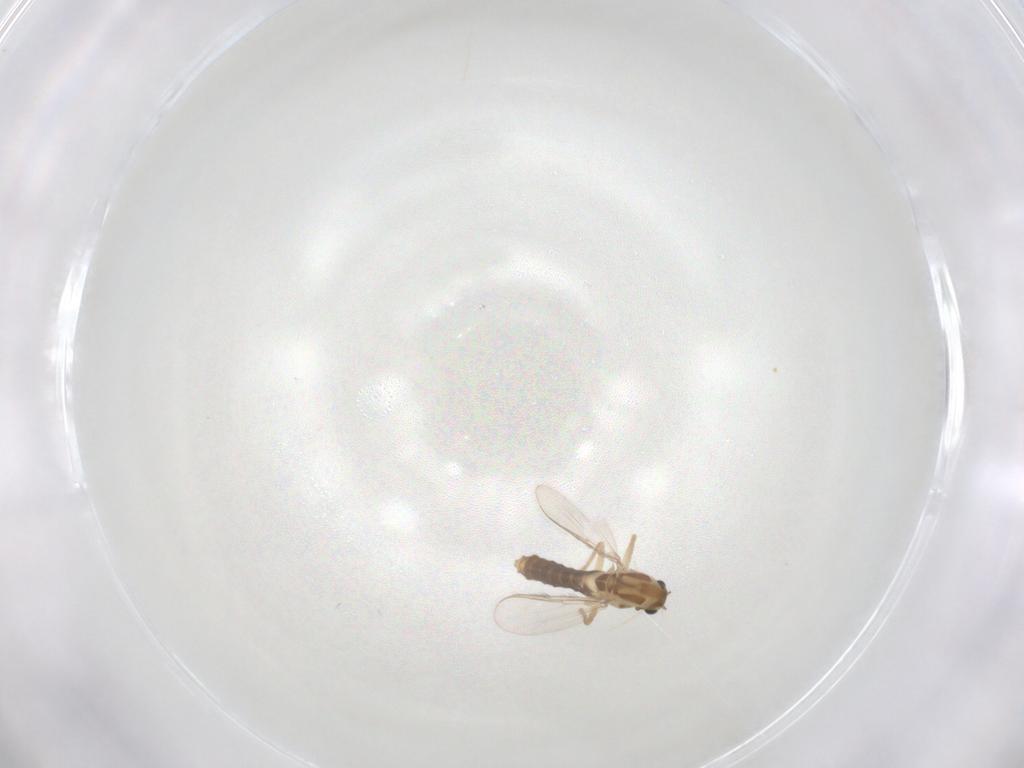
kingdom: Animalia
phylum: Arthropoda
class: Insecta
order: Diptera
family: Chironomidae
